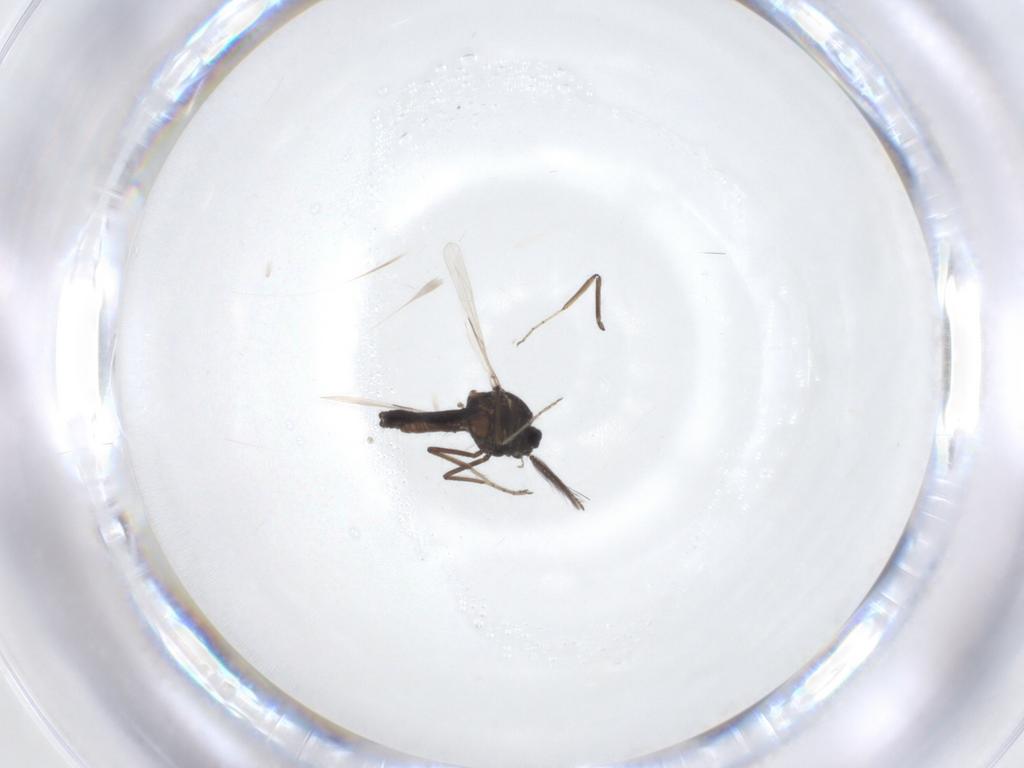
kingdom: Animalia
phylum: Arthropoda
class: Insecta
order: Diptera
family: Ceratopogonidae
